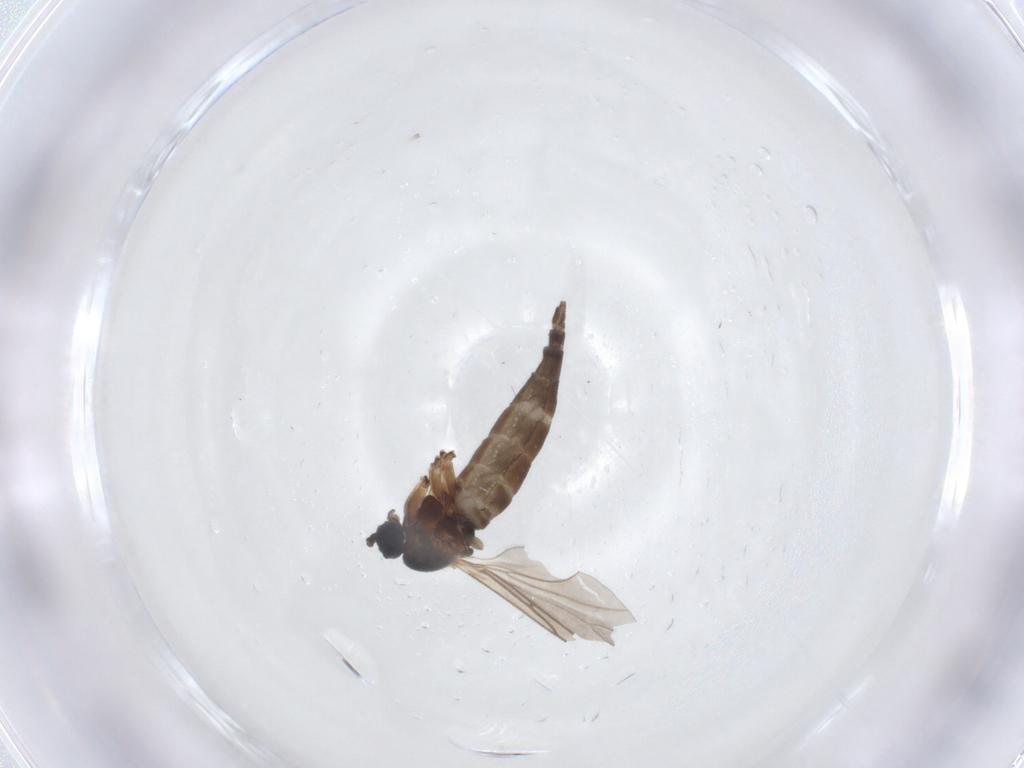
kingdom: Animalia
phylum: Arthropoda
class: Insecta
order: Diptera
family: Sciaridae
